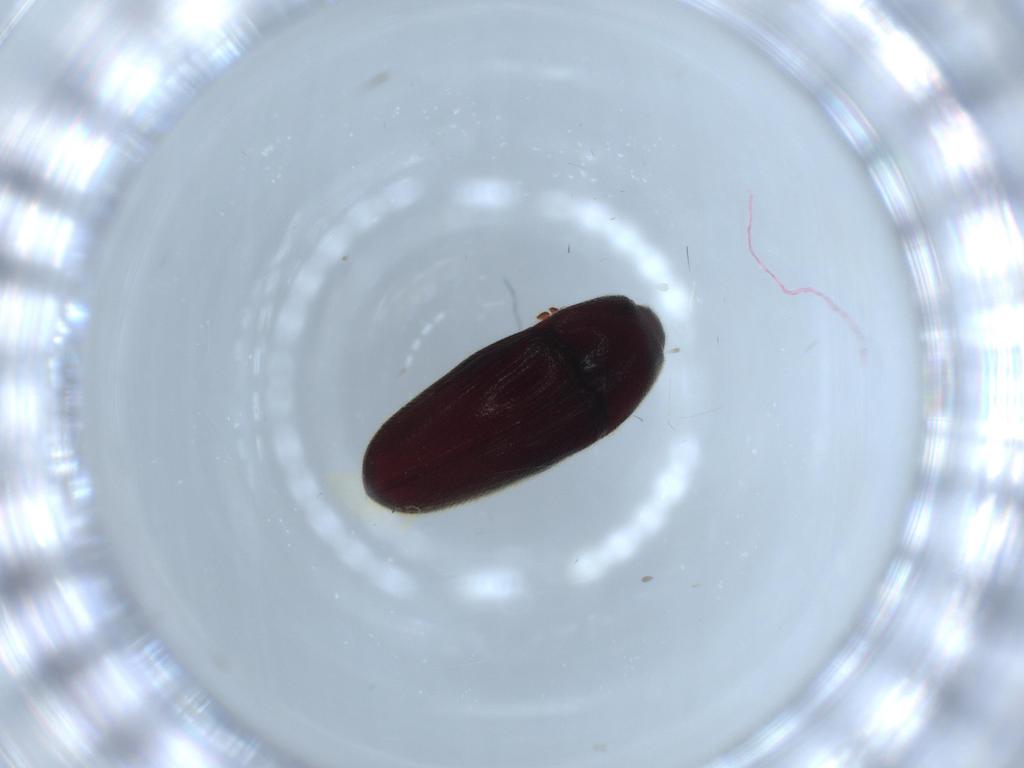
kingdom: Animalia
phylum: Arthropoda
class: Insecta
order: Coleoptera
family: Throscidae
